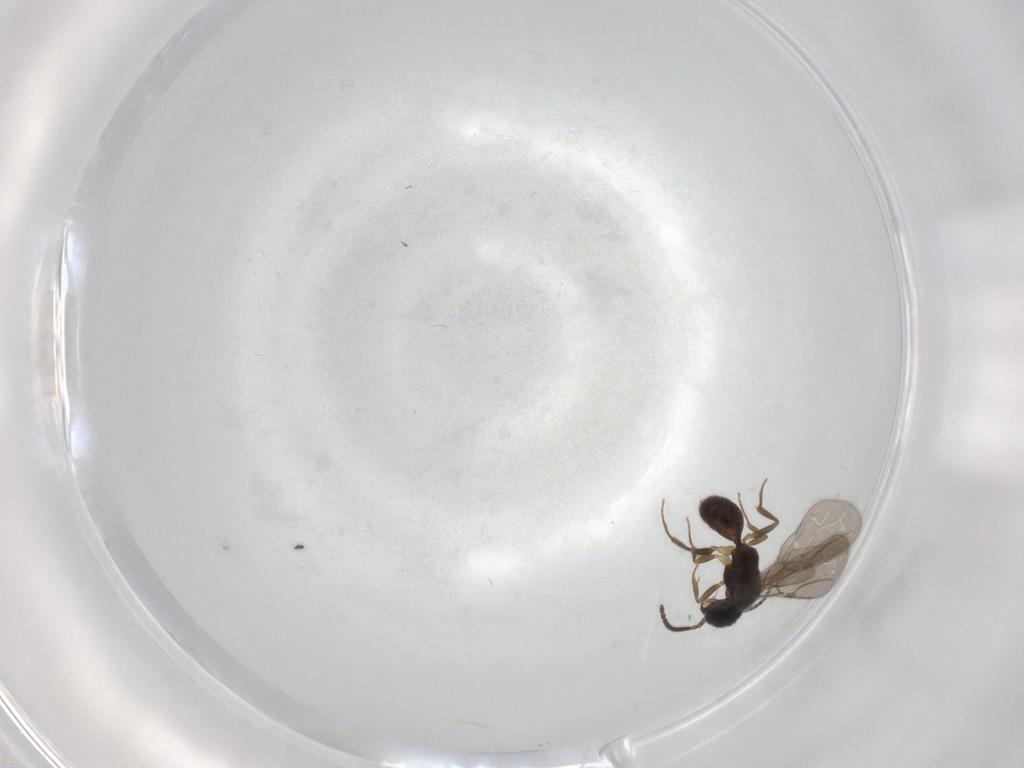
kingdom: Animalia
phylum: Arthropoda
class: Insecta
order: Hymenoptera
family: Bethylidae
